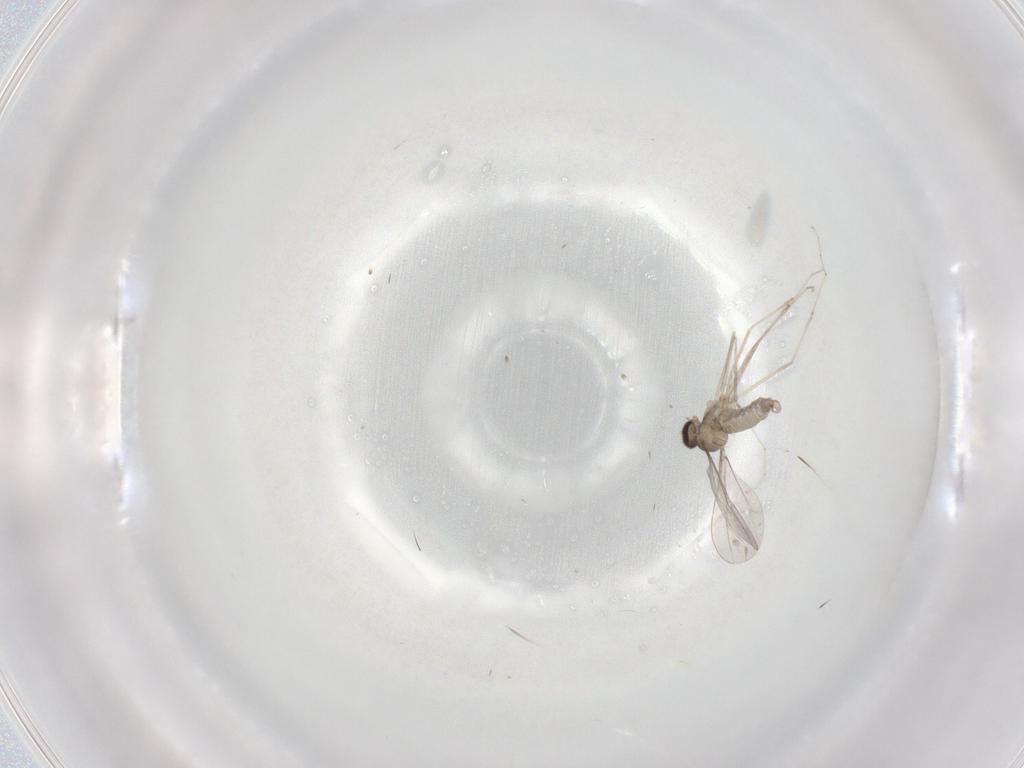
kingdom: Animalia
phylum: Arthropoda
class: Insecta
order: Diptera
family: Cecidomyiidae
